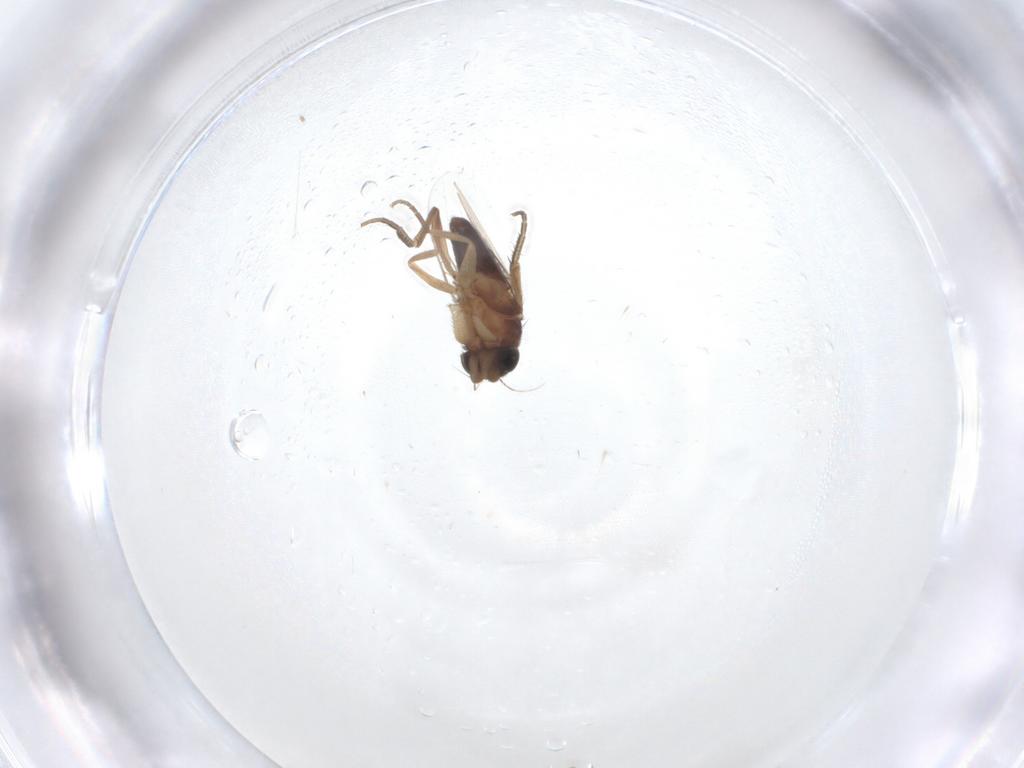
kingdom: Animalia
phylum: Arthropoda
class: Insecta
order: Diptera
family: Phoridae
